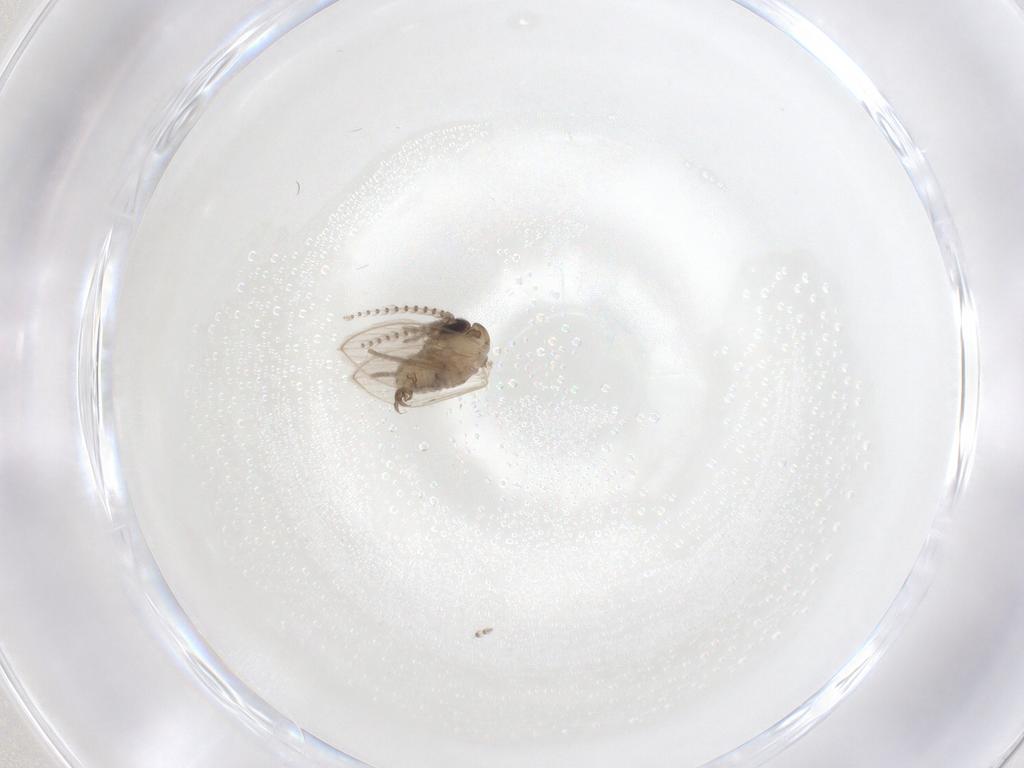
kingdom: Animalia
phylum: Arthropoda
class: Insecta
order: Diptera
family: Psychodidae
